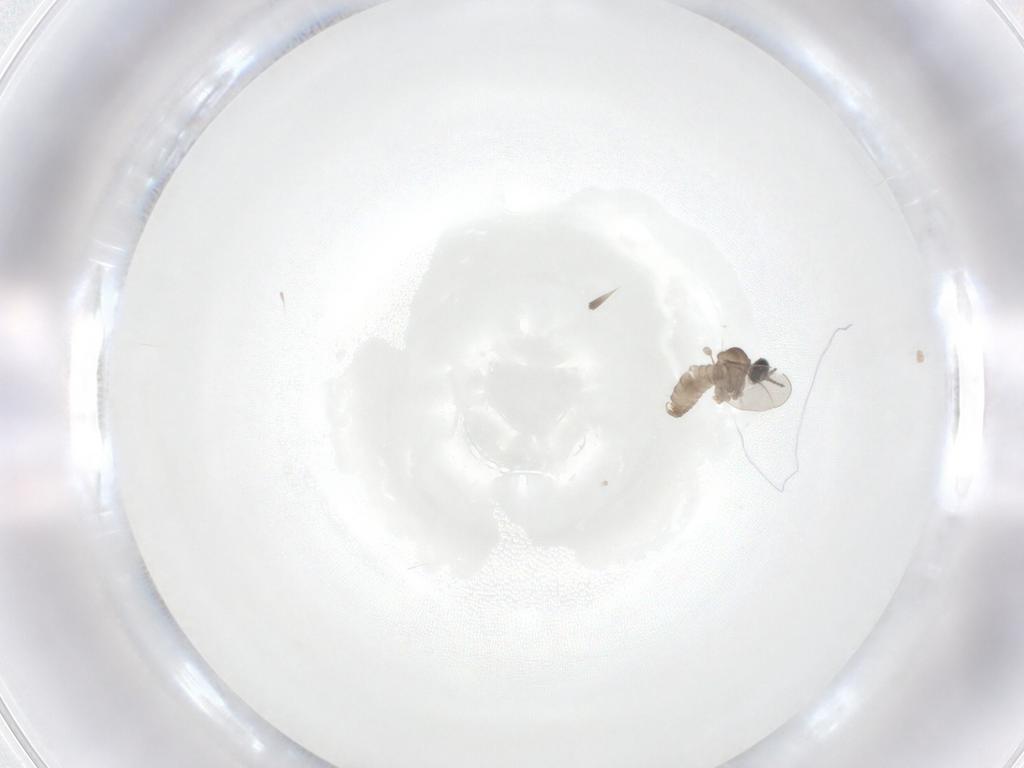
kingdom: Animalia
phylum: Arthropoda
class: Insecta
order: Diptera
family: Cecidomyiidae
